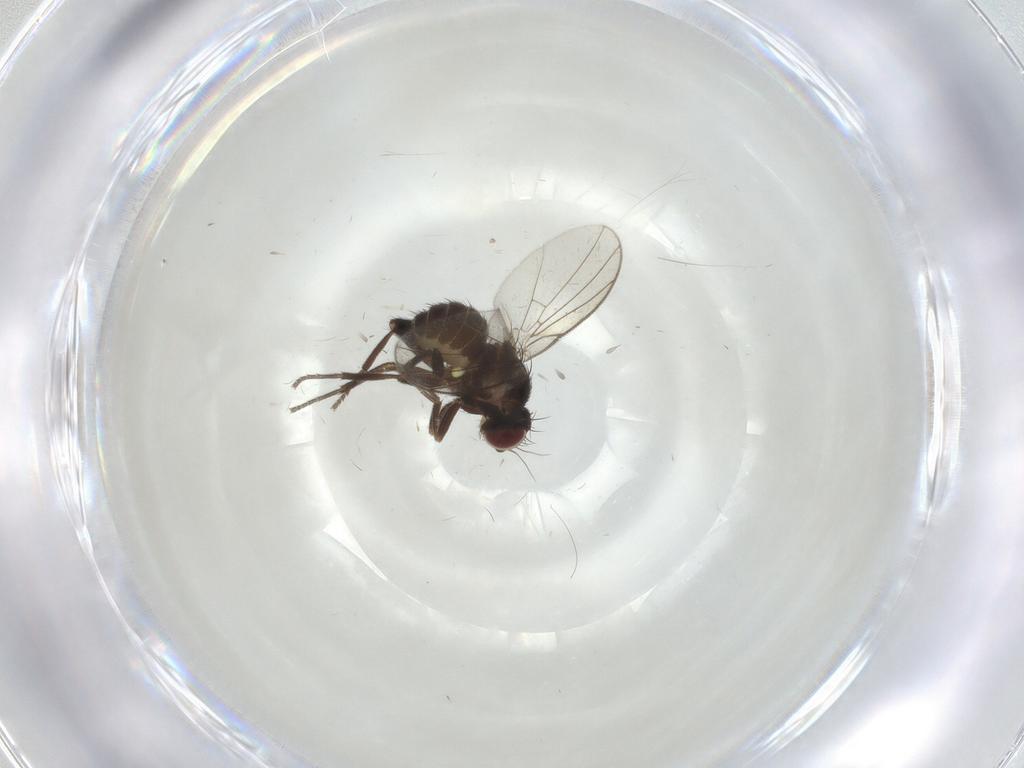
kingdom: Animalia
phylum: Arthropoda
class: Insecta
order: Diptera
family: Agromyzidae
